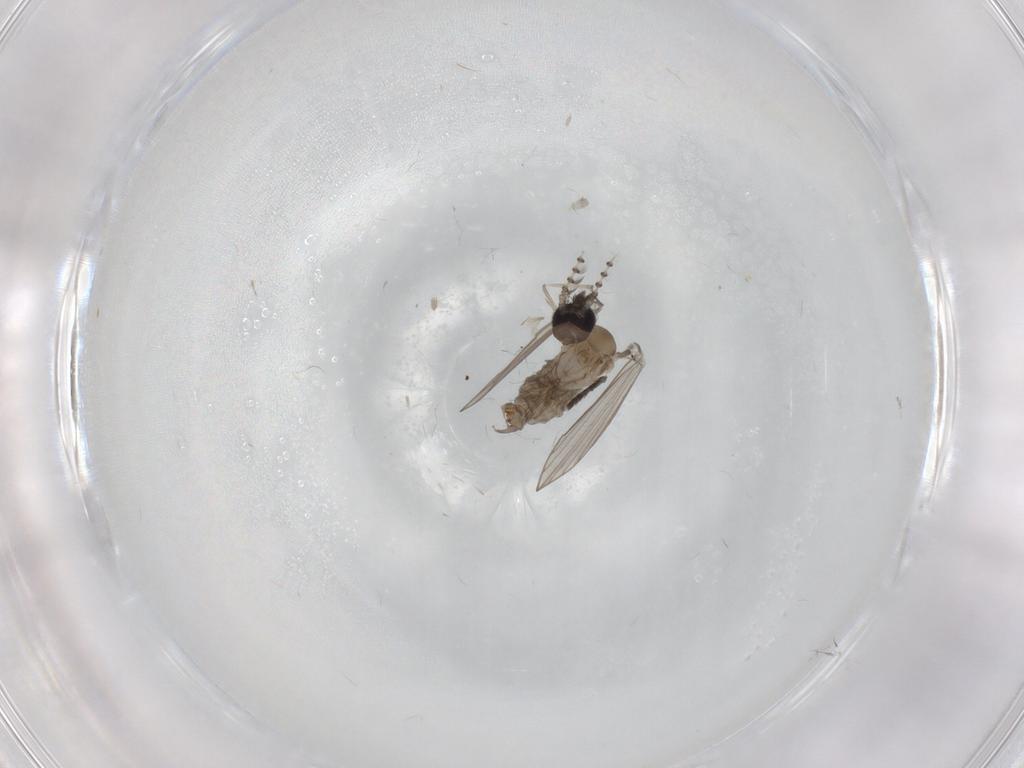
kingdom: Animalia
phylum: Arthropoda
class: Insecta
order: Diptera
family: Psychodidae
